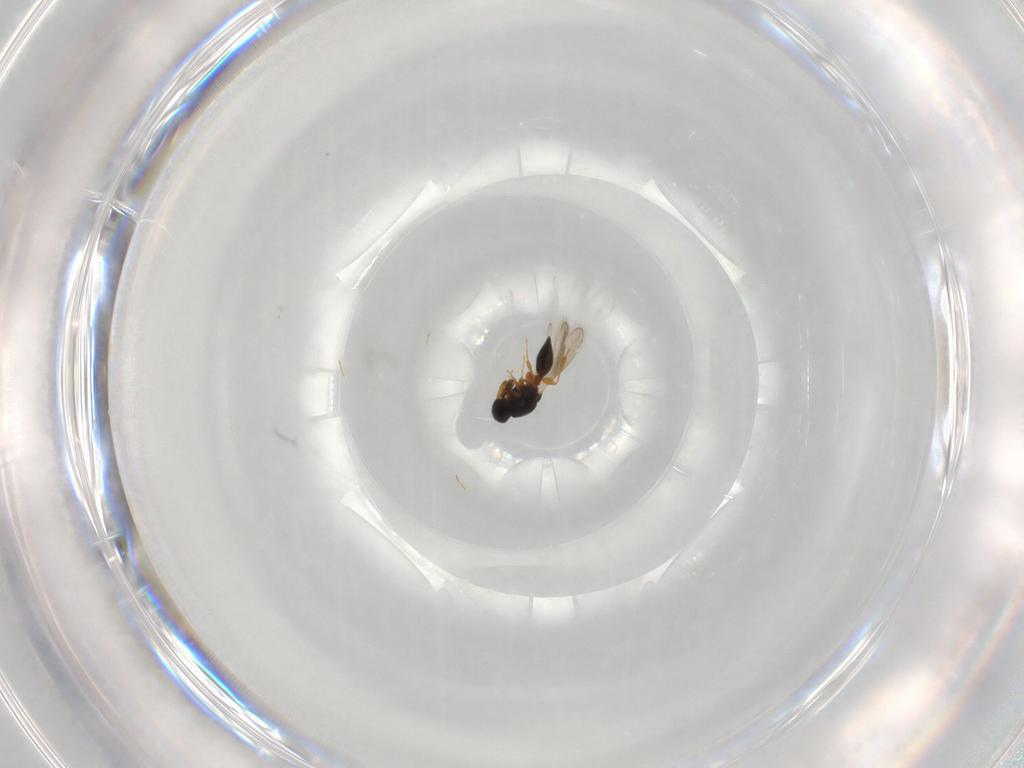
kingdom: Animalia
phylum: Arthropoda
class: Insecta
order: Hymenoptera
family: Platygastridae
